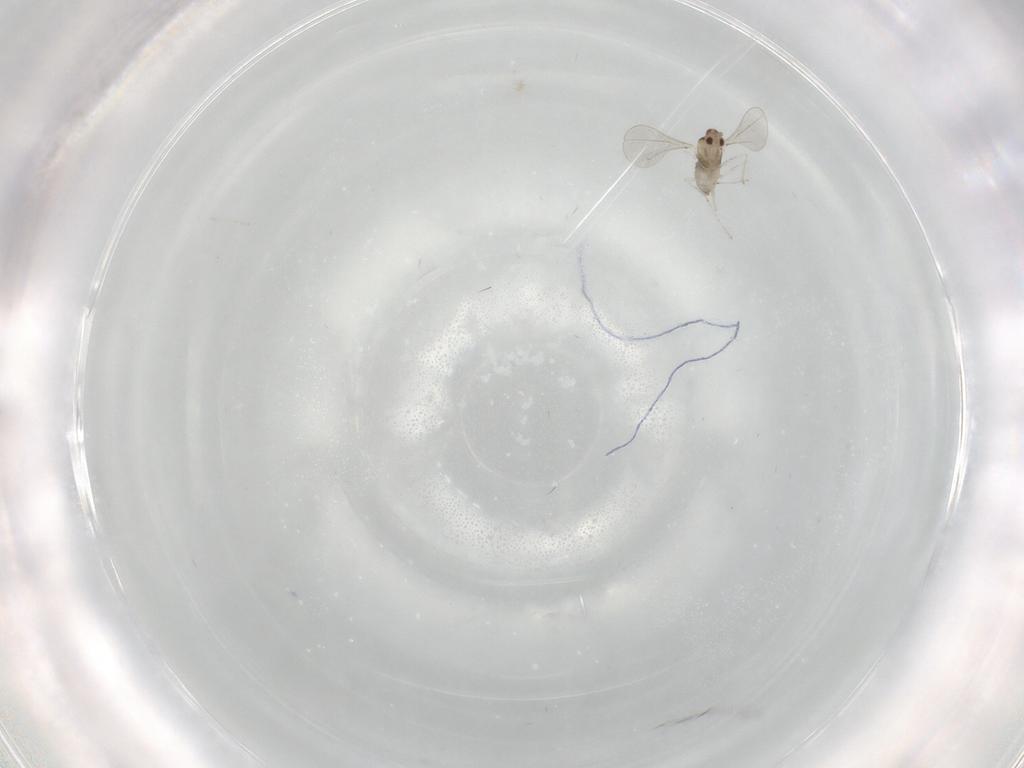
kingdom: Animalia
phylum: Arthropoda
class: Insecta
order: Diptera
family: Cecidomyiidae
